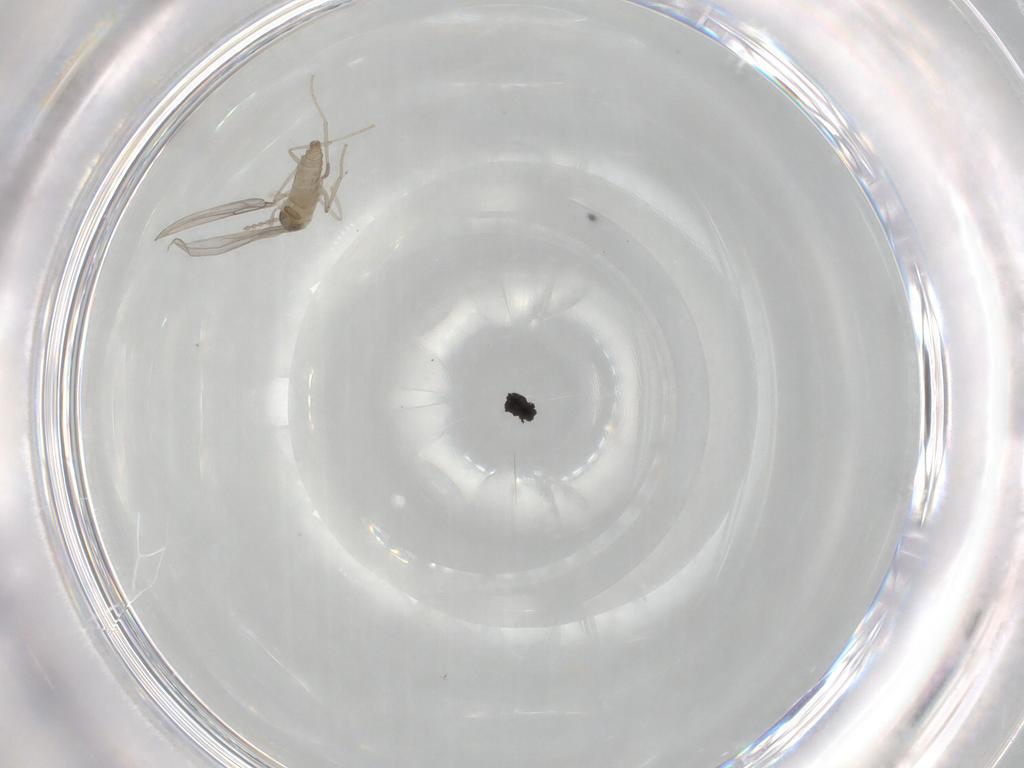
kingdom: Animalia
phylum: Arthropoda
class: Insecta
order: Diptera
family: Cecidomyiidae
